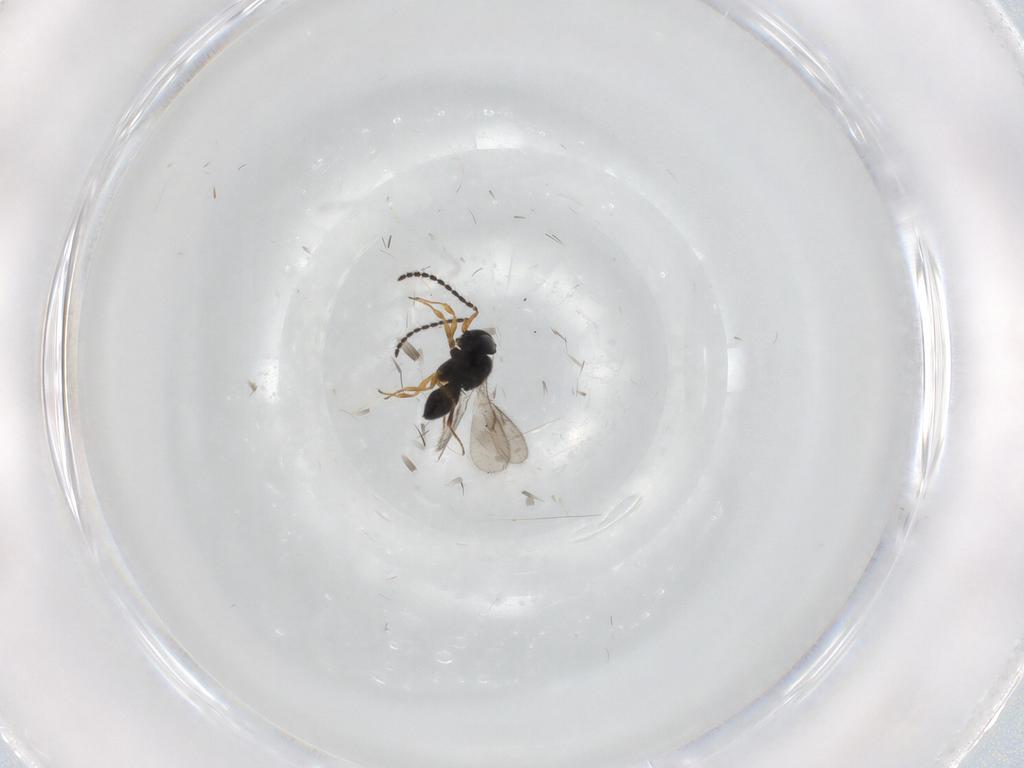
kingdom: Animalia
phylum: Arthropoda
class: Insecta
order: Hymenoptera
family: Scelionidae
